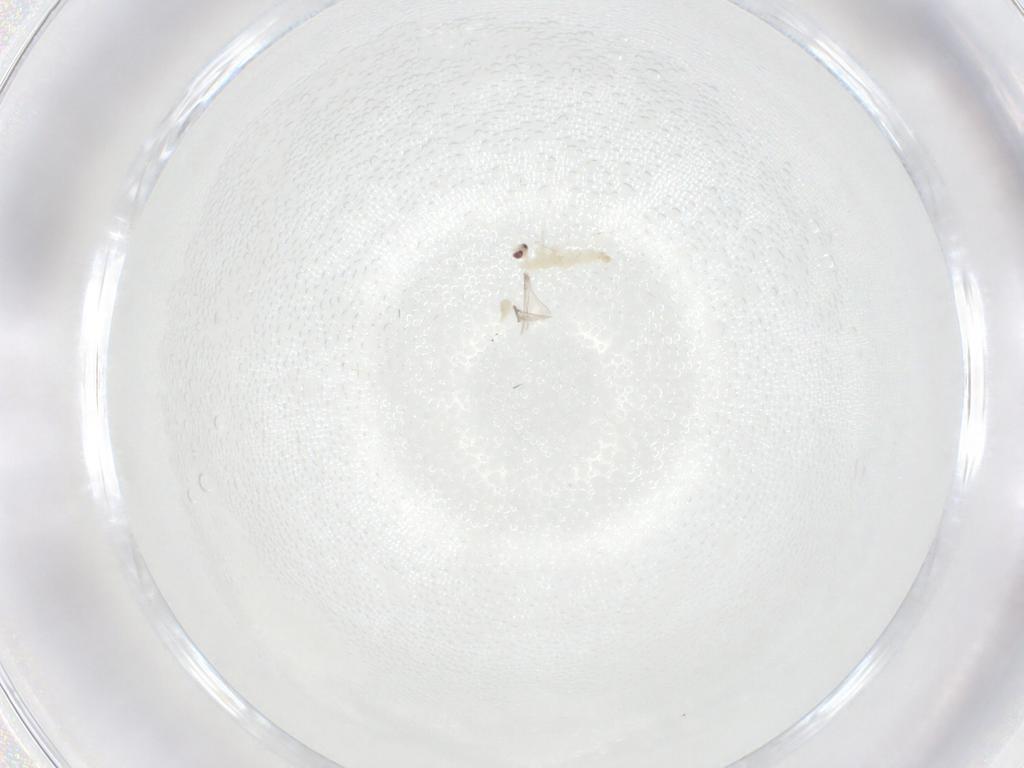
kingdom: Animalia
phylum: Arthropoda
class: Insecta
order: Diptera
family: Cecidomyiidae
